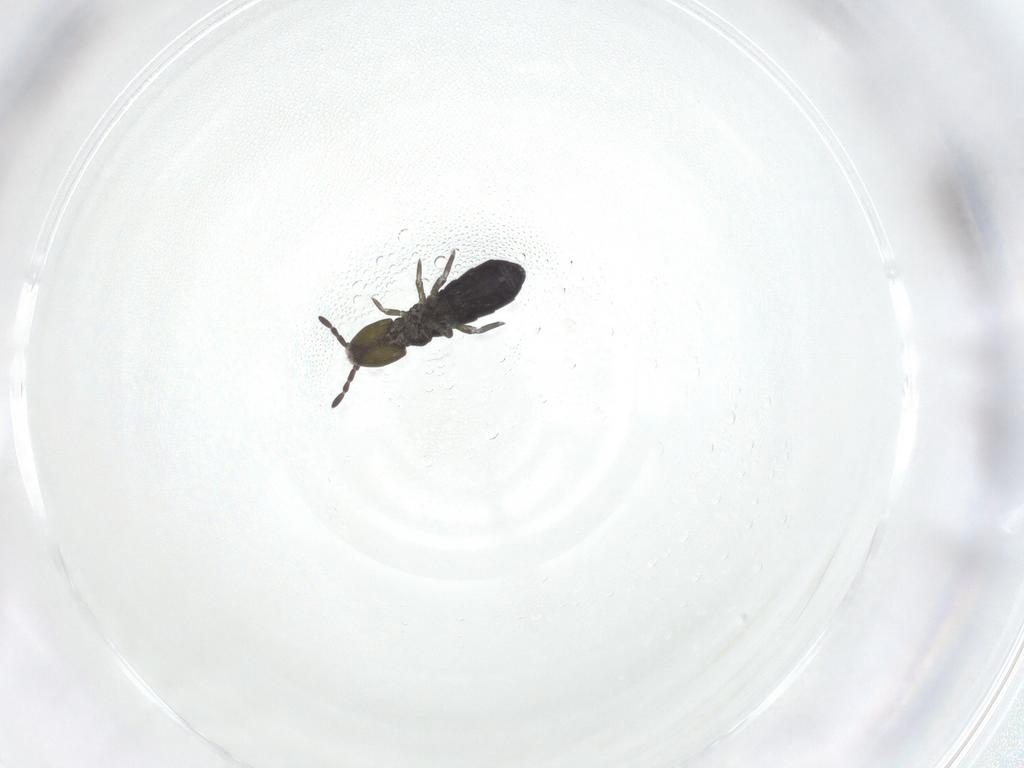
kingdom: Animalia
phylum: Arthropoda
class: Collembola
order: Entomobryomorpha
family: Isotomidae
